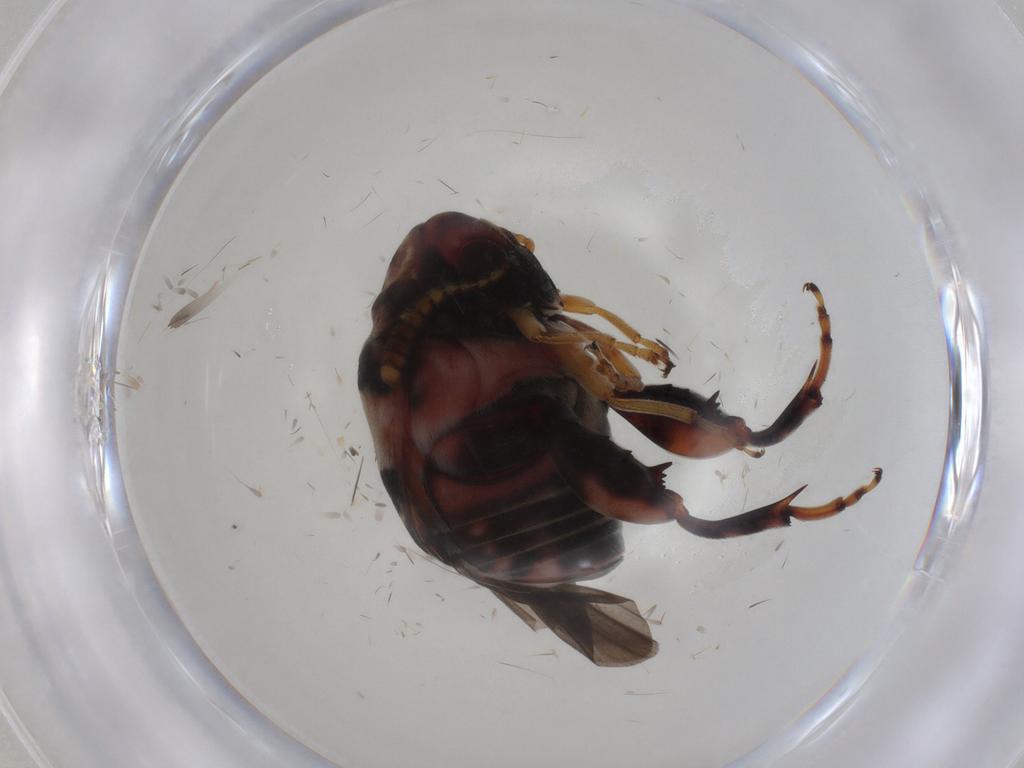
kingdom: Animalia
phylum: Arthropoda
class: Insecta
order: Coleoptera
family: Chrysomelidae
